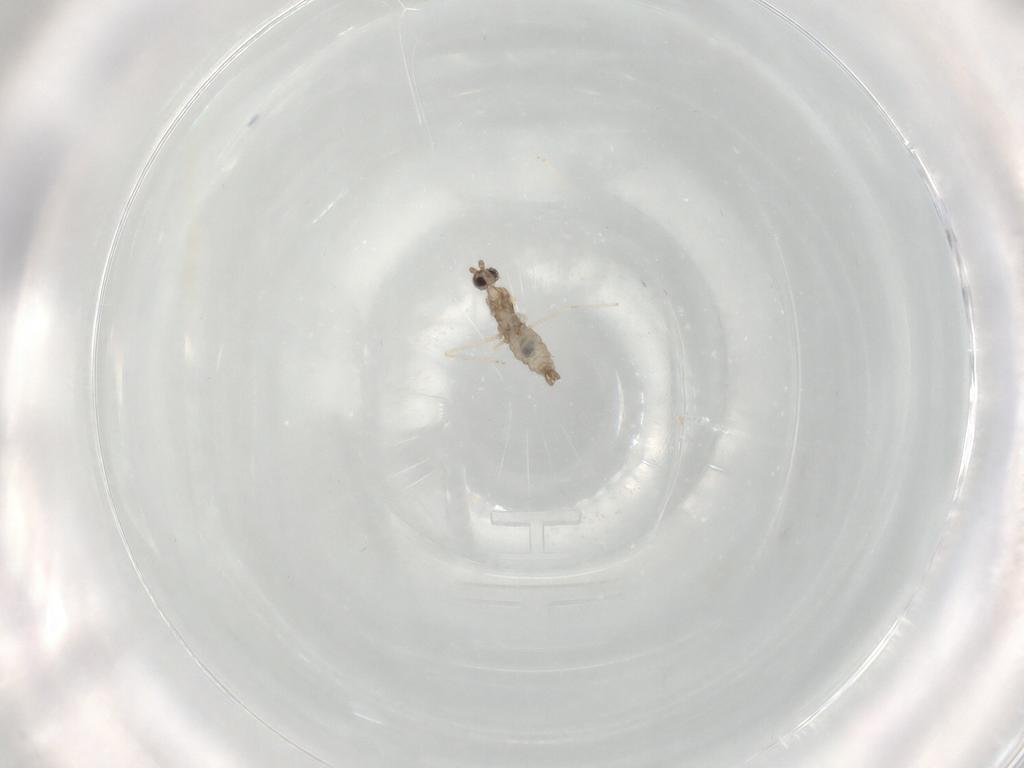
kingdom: Animalia
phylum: Arthropoda
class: Insecta
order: Diptera
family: Cecidomyiidae
